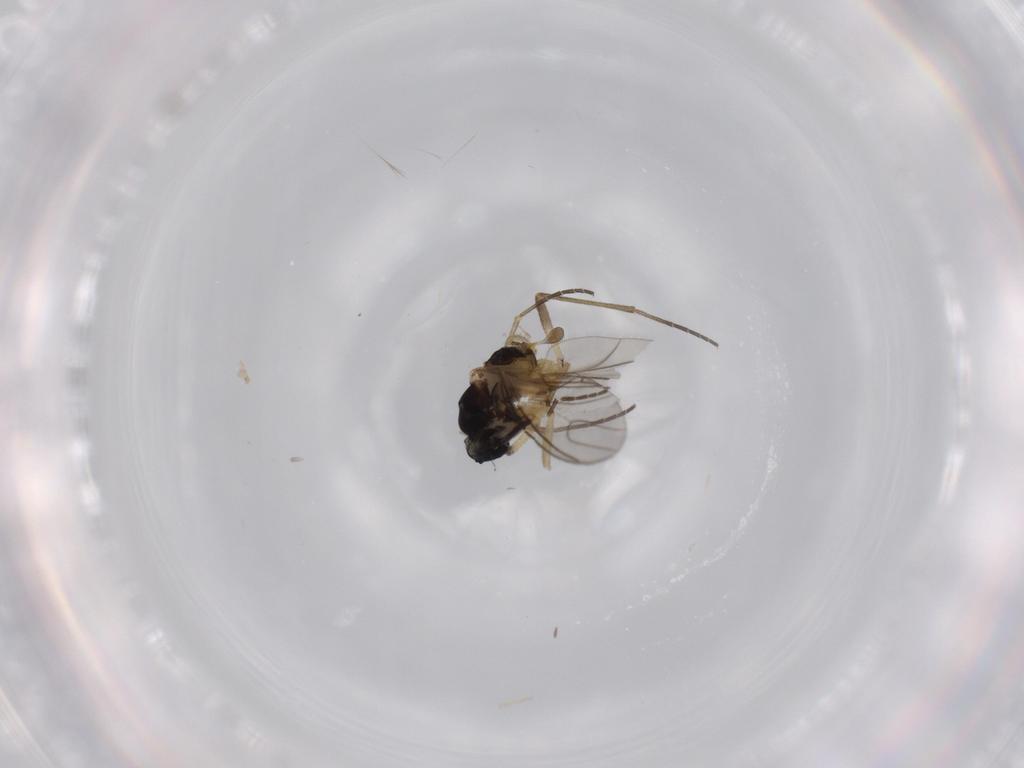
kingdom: Animalia
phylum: Arthropoda
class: Insecta
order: Diptera
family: Sciaridae
